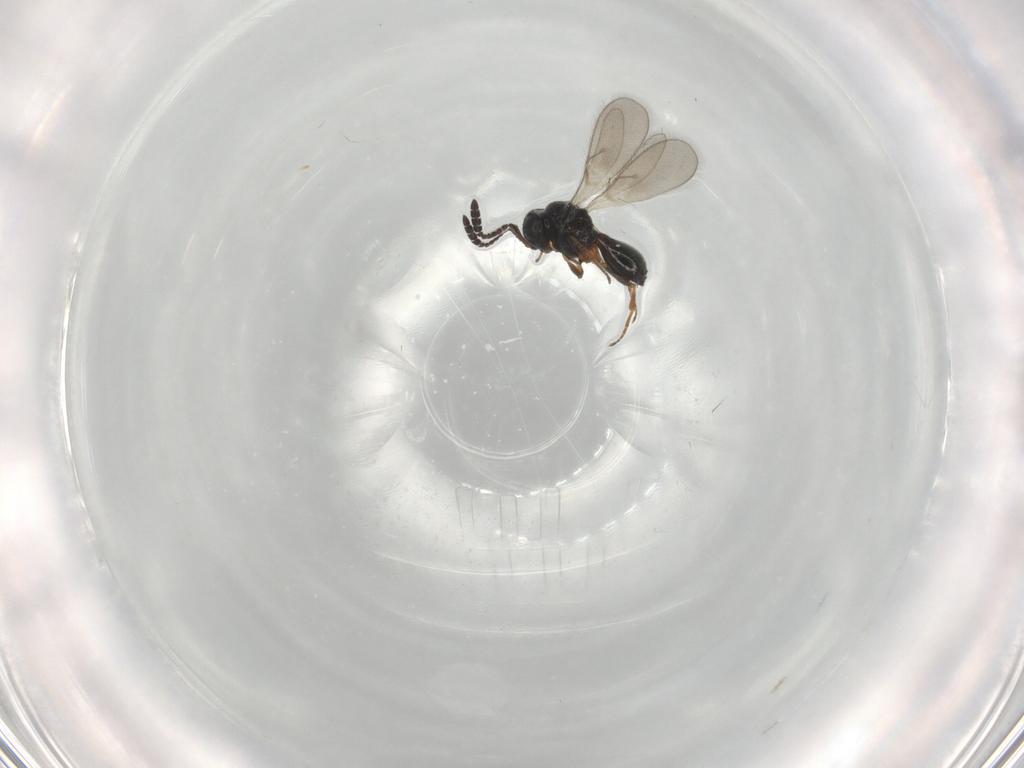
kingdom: Animalia
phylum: Arthropoda
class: Insecta
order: Hymenoptera
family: Scelionidae
